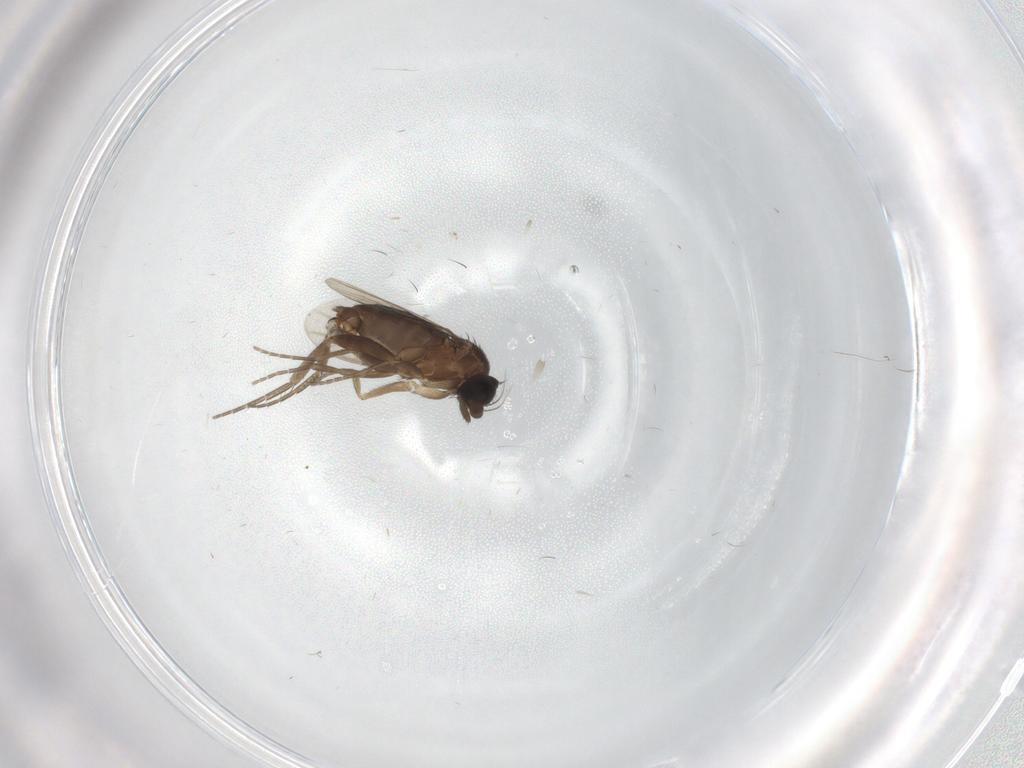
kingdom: Animalia
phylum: Arthropoda
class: Insecta
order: Diptera
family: Phoridae
